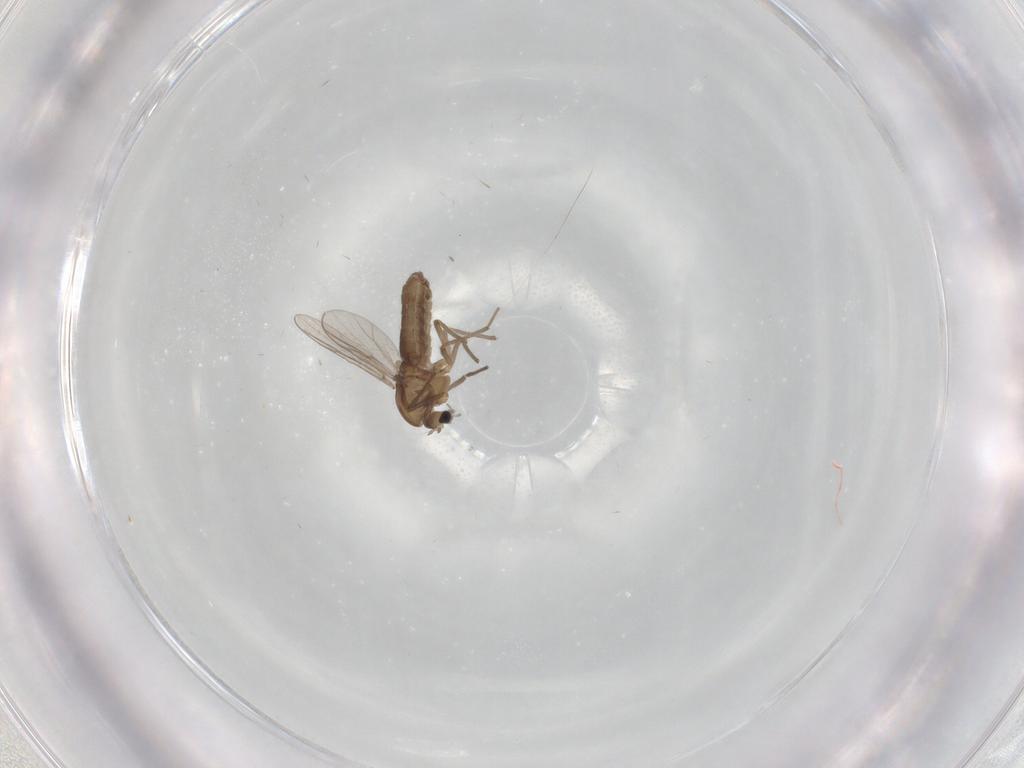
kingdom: Animalia
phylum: Arthropoda
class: Insecta
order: Diptera
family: Chironomidae
